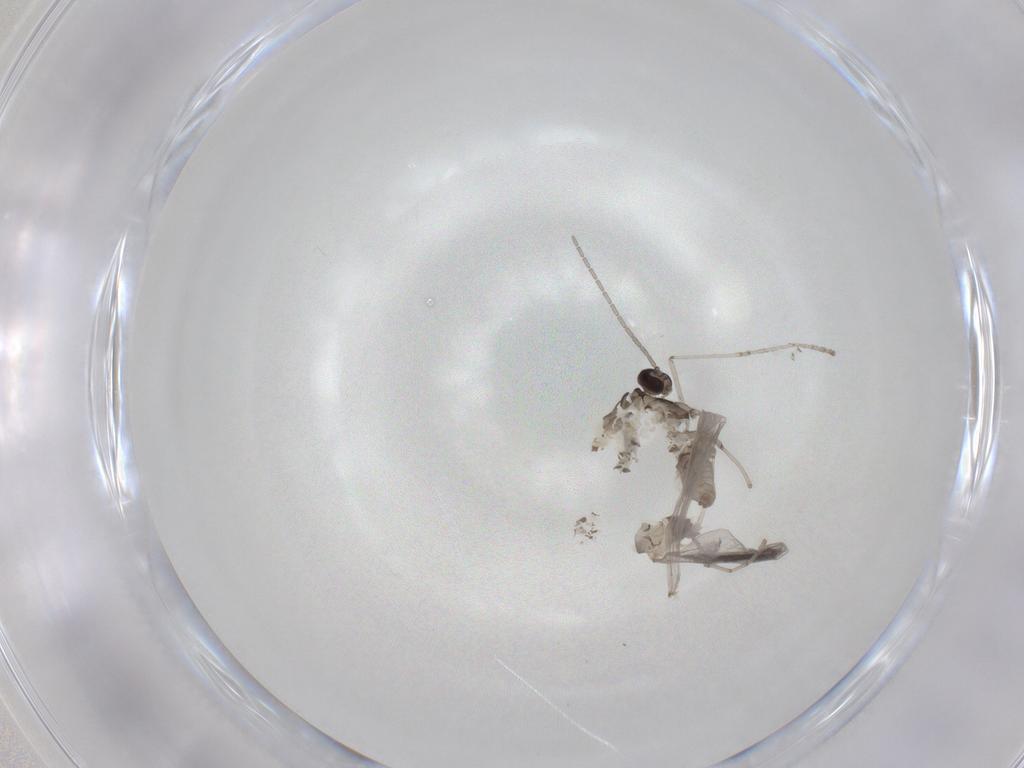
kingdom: Animalia
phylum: Arthropoda
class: Insecta
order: Diptera
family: Cecidomyiidae
